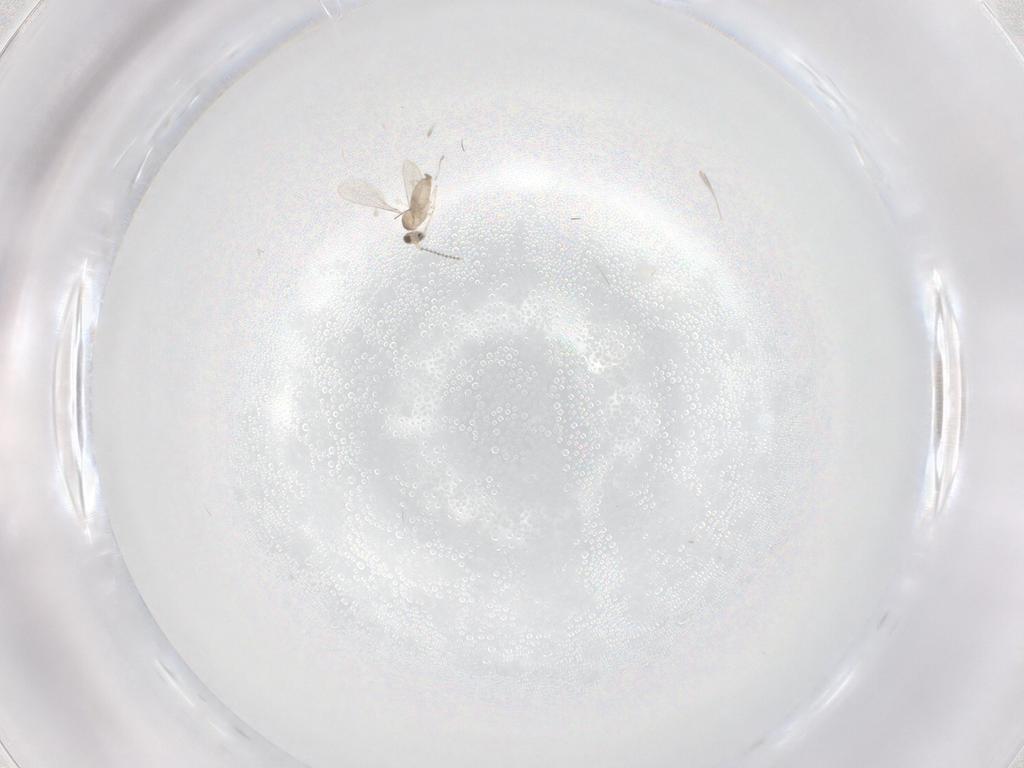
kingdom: Animalia
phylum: Arthropoda
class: Insecta
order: Diptera
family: Cecidomyiidae
